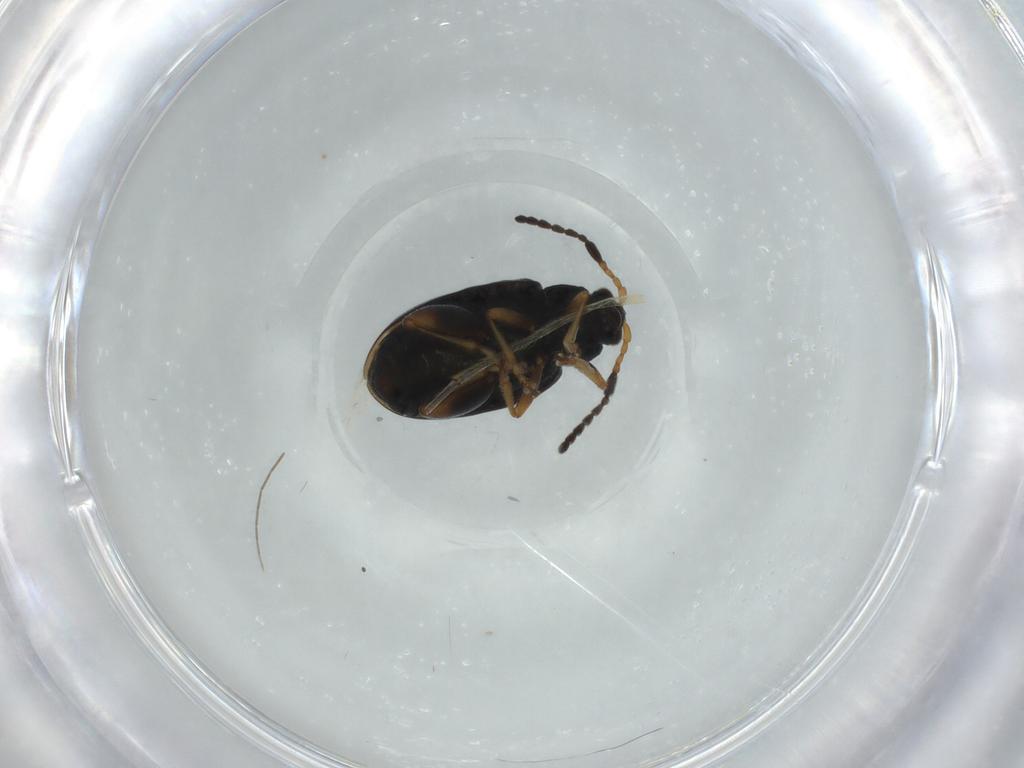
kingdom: Animalia
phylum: Arthropoda
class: Insecta
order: Coleoptera
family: Chrysomelidae
